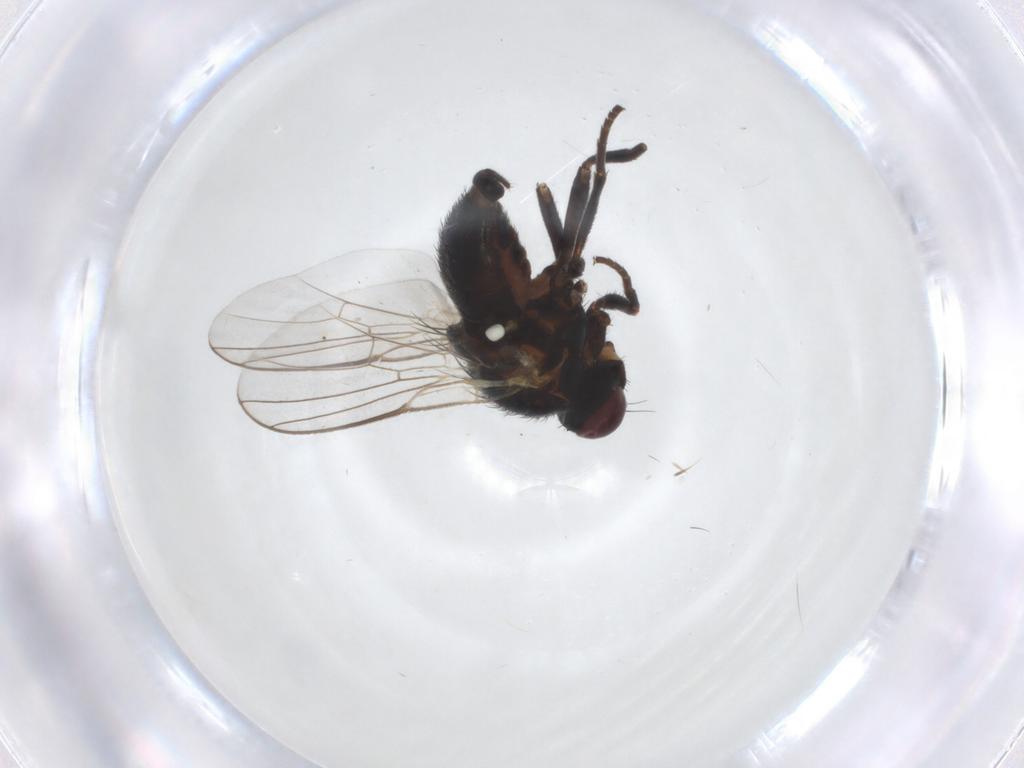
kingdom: Animalia
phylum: Arthropoda
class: Insecta
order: Diptera
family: Agromyzidae
